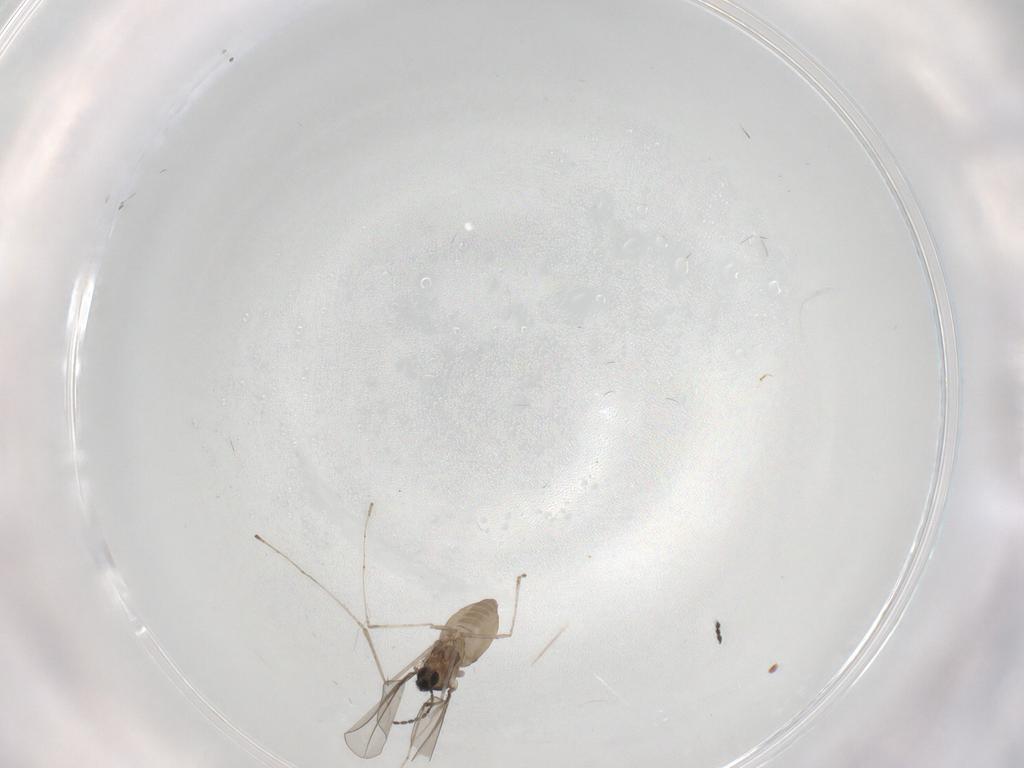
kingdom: Animalia
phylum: Arthropoda
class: Insecta
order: Diptera
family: Cecidomyiidae
